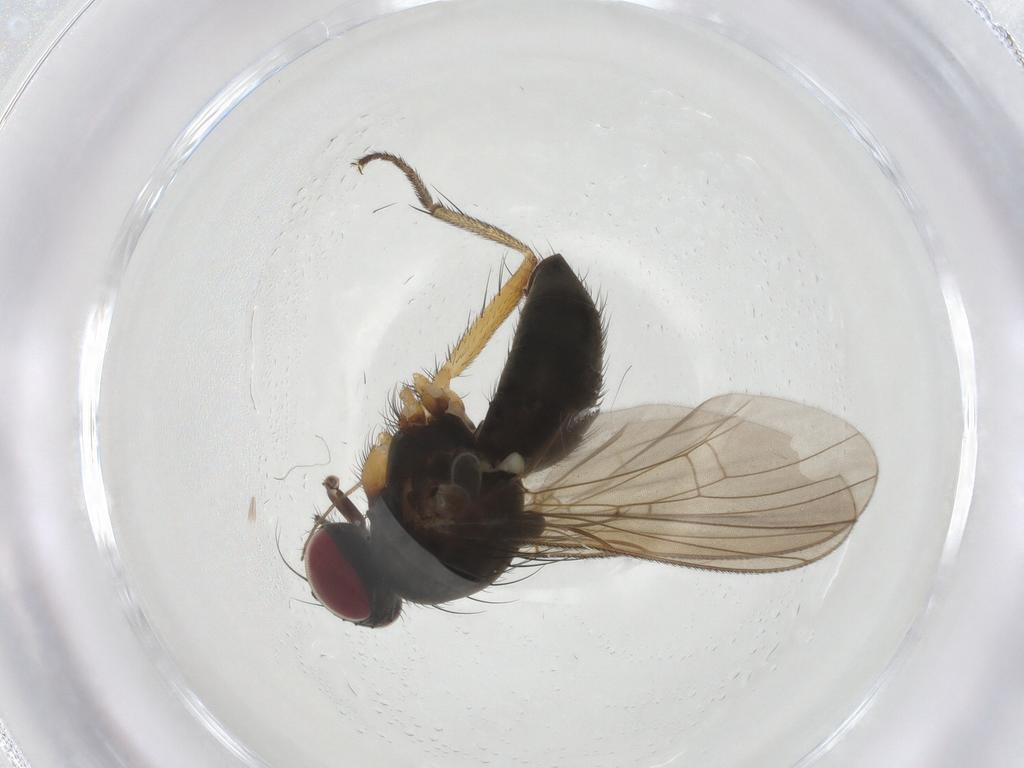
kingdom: Animalia
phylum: Arthropoda
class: Insecta
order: Diptera
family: Muscidae
